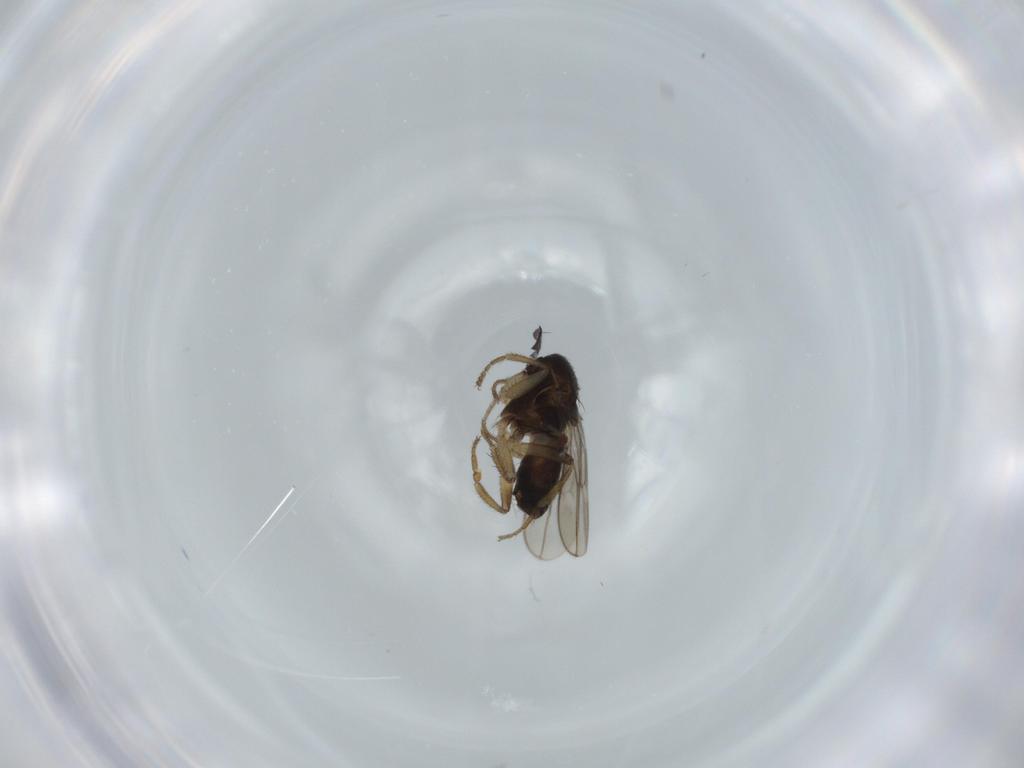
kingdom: Animalia
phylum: Arthropoda
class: Insecta
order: Diptera
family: Sphaeroceridae
